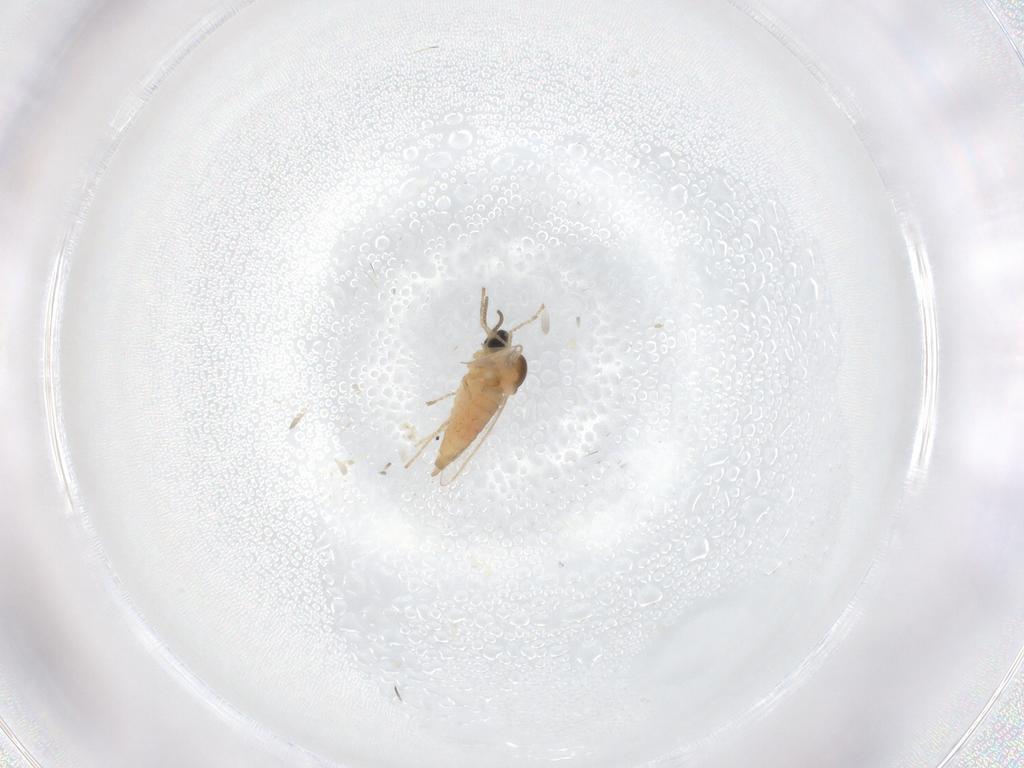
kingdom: Animalia
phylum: Arthropoda
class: Insecta
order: Diptera
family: Cecidomyiidae
